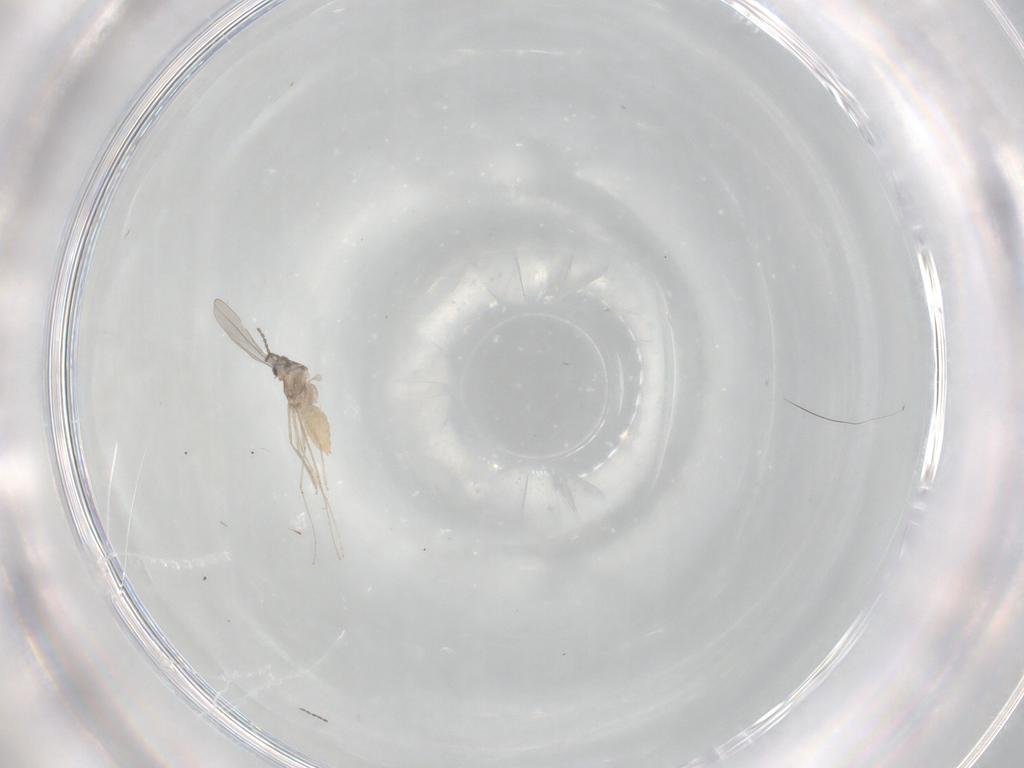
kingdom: Animalia
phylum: Arthropoda
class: Insecta
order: Diptera
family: Cecidomyiidae
